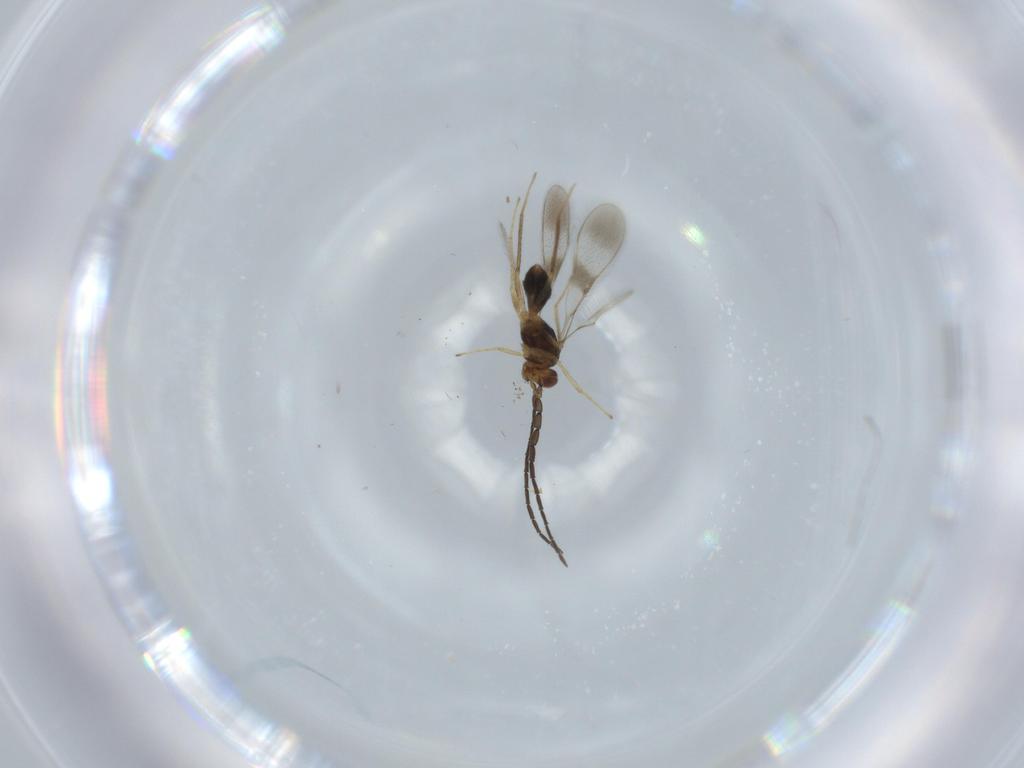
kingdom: Animalia
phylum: Arthropoda
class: Insecta
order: Hymenoptera
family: Mymaridae
